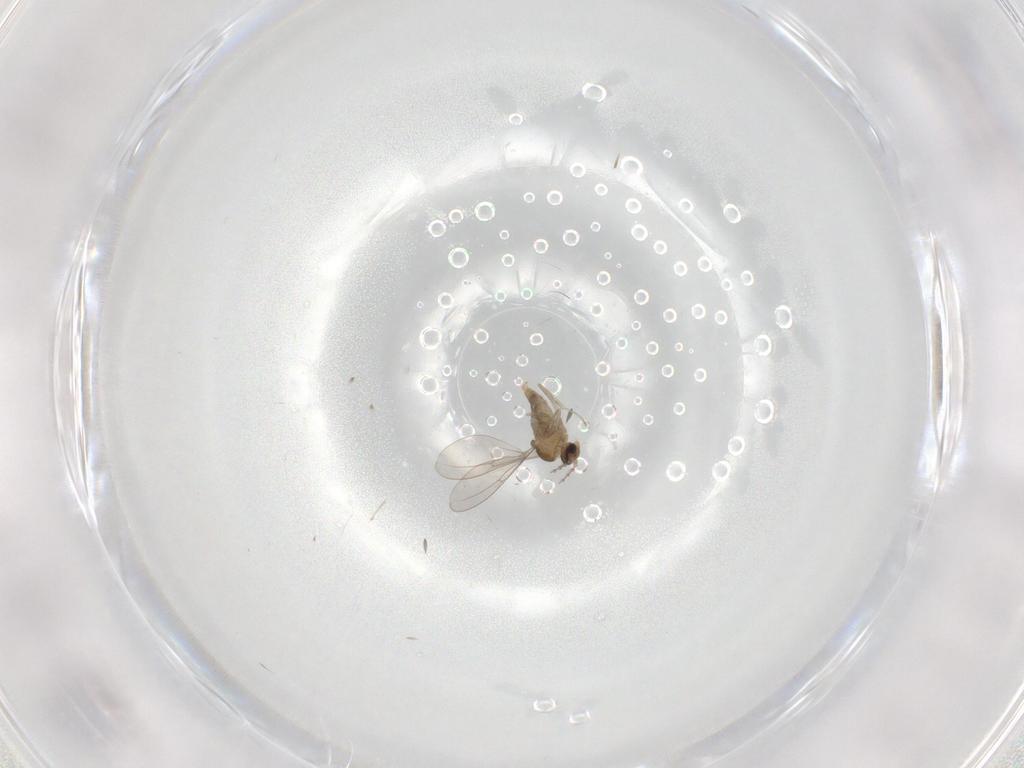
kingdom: Animalia
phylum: Arthropoda
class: Insecta
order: Diptera
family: Cecidomyiidae
